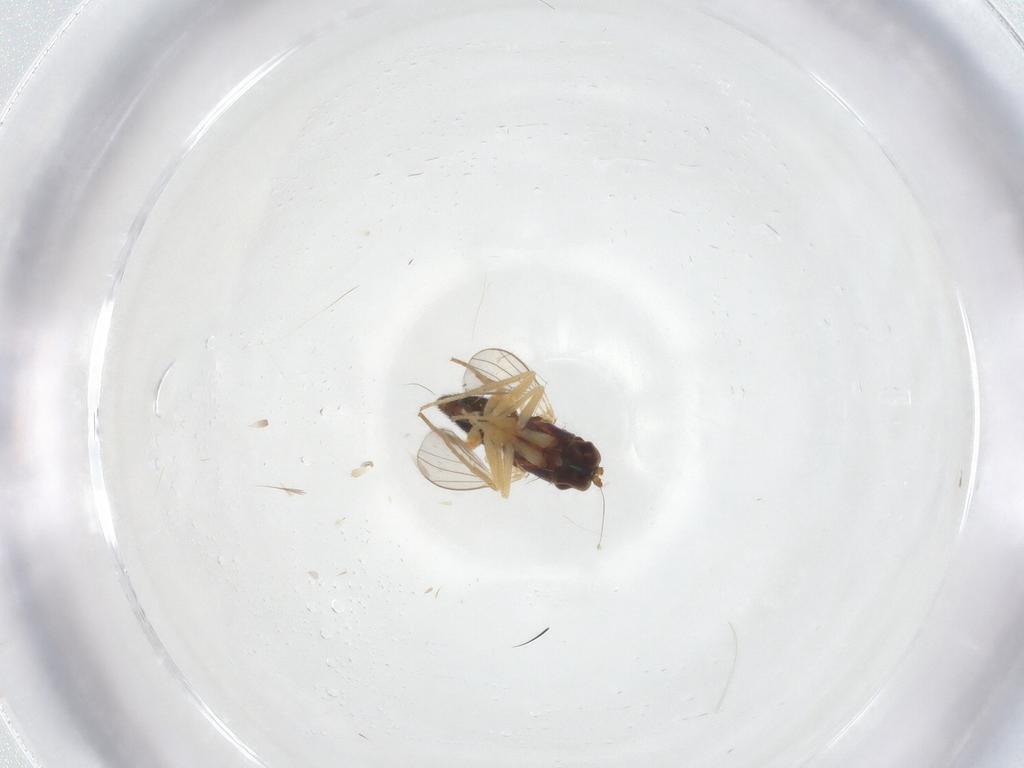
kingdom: Animalia
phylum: Arthropoda
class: Insecta
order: Diptera
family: Dolichopodidae
